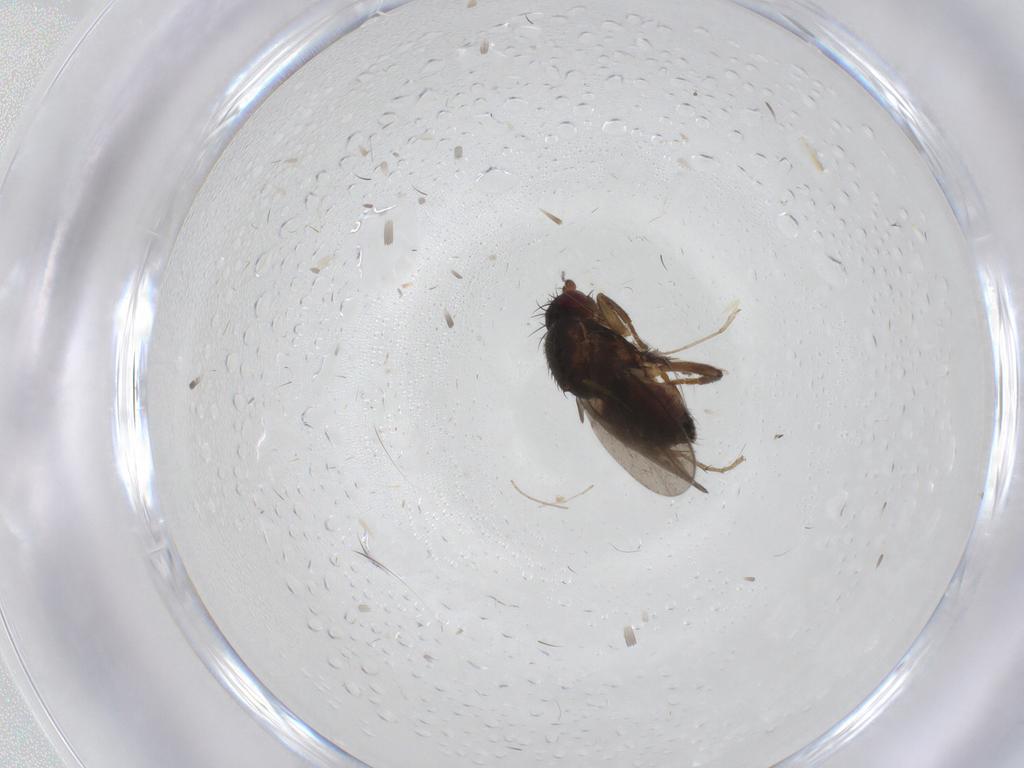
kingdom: Animalia
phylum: Arthropoda
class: Insecta
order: Diptera
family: Chironomidae
